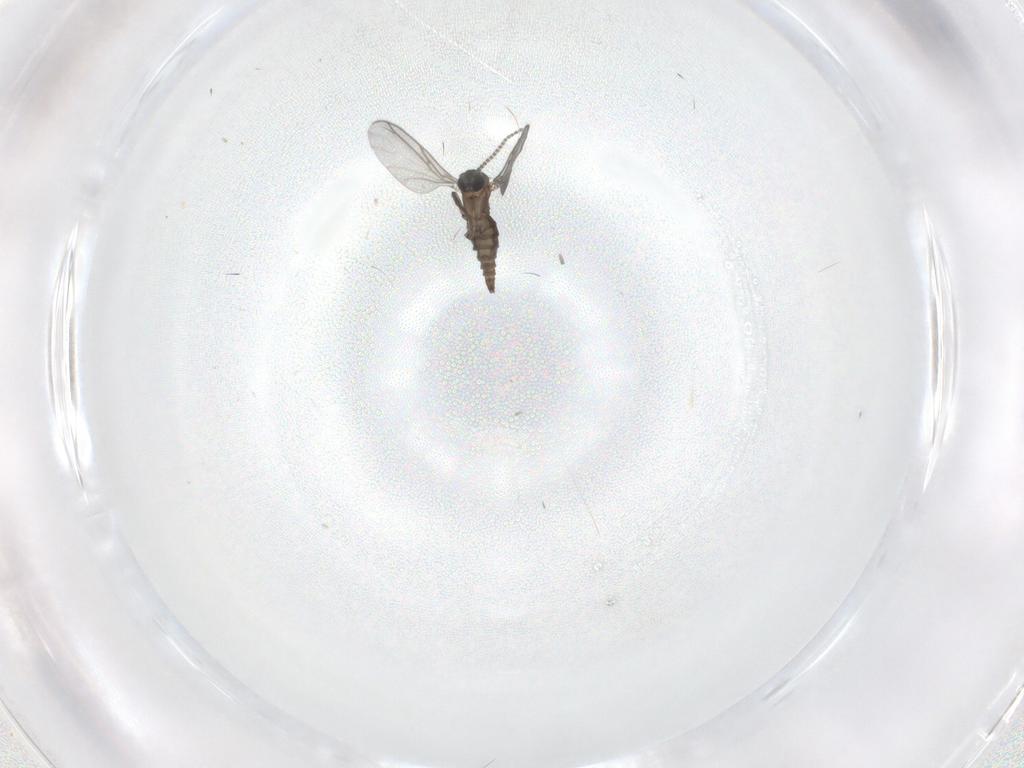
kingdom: Animalia
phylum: Arthropoda
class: Insecta
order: Diptera
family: Sciaridae
